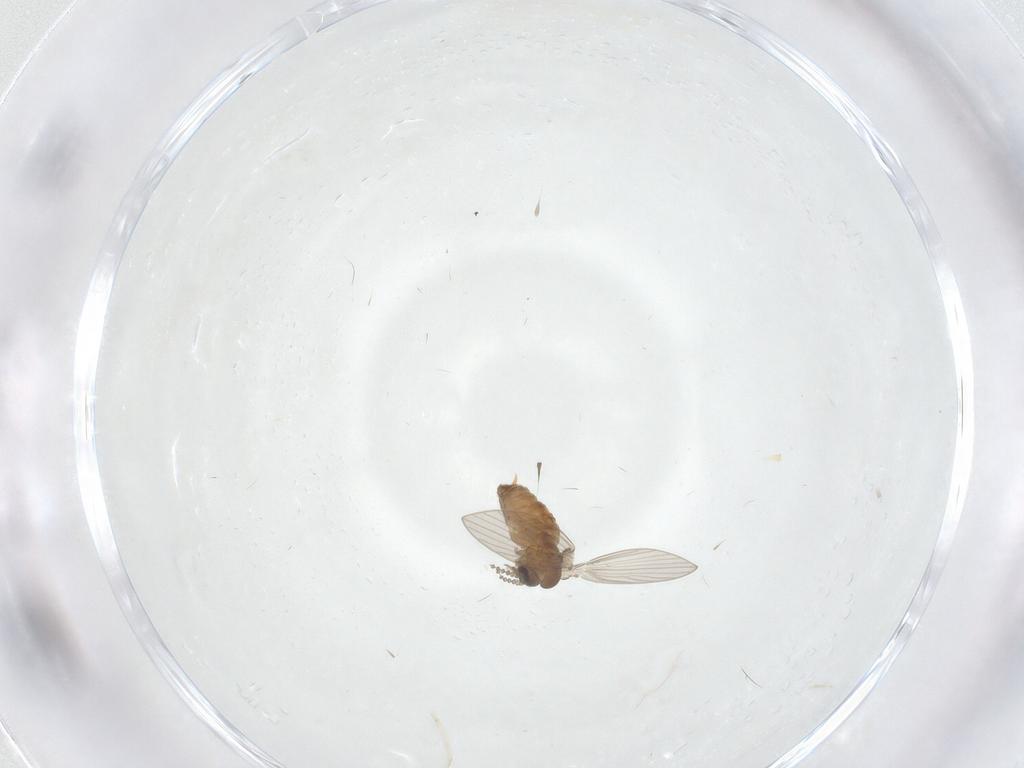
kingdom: Animalia
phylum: Arthropoda
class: Insecta
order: Diptera
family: Psychodidae
